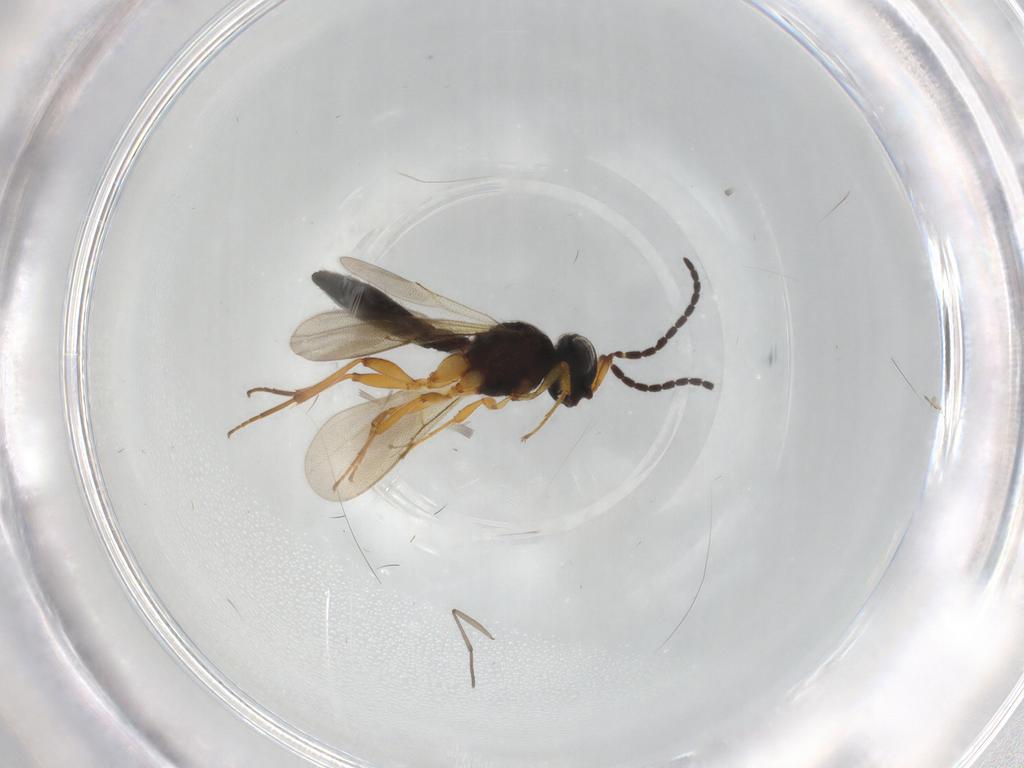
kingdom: Animalia
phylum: Arthropoda
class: Insecta
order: Hymenoptera
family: Scelionidae
